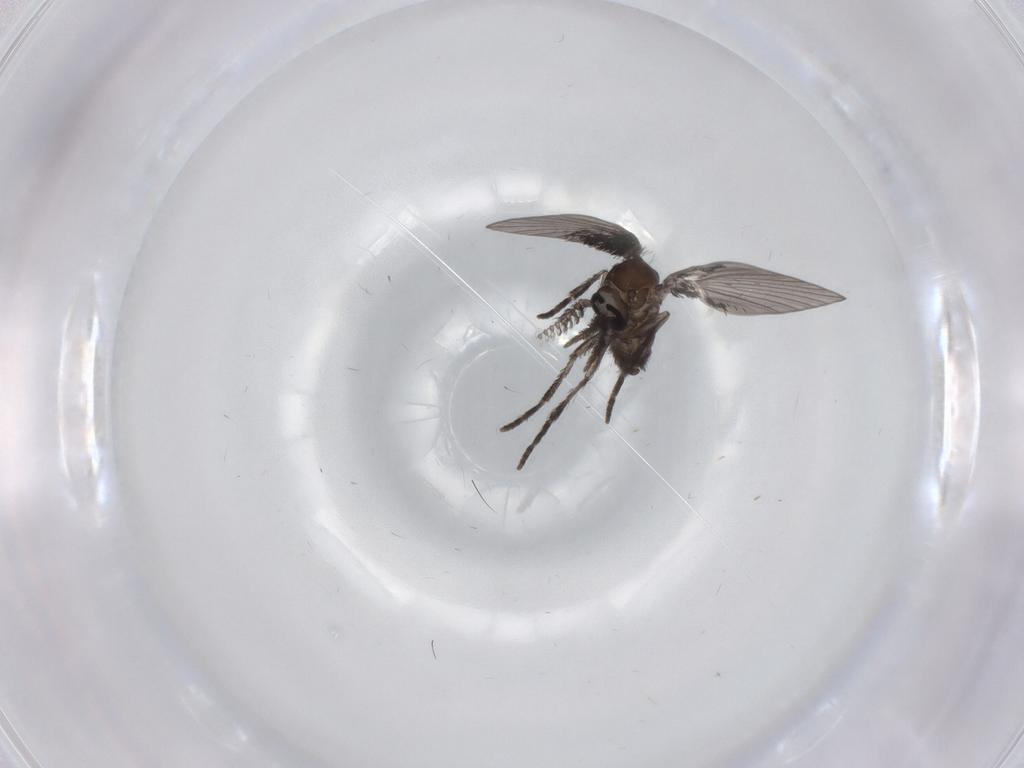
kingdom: Animalia
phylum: Arthropoda
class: Insecta
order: Diptera
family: Psychodidae
